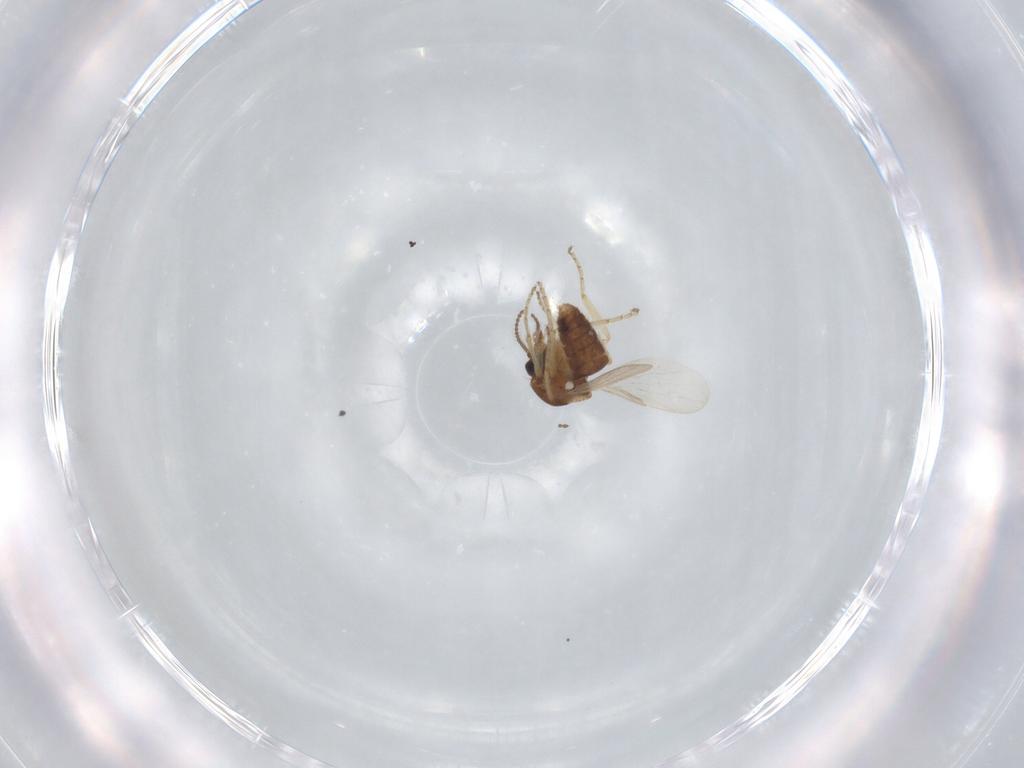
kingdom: Animalia
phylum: Arthropoda
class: Insecta
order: Diptera
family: Ceratopogonidae
